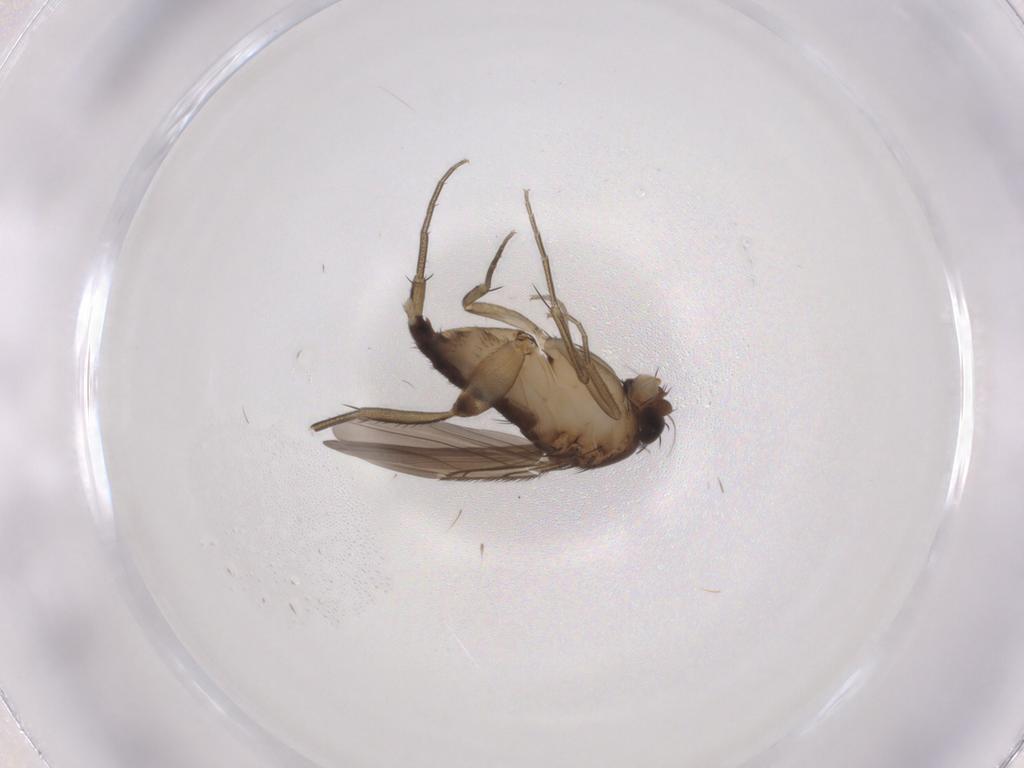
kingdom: Animalia
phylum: Arthropoda
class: Insecta
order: Diptera
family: Phoridae
